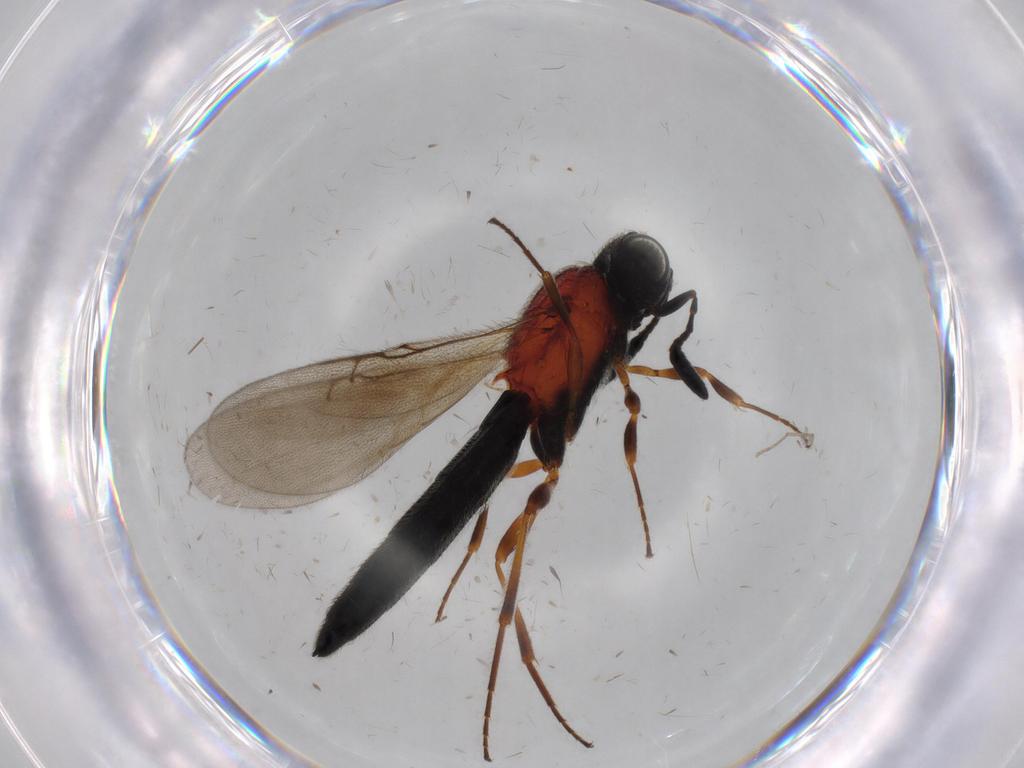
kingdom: Animalia
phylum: Arthropoda
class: Insecta
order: Hymenoptera
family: Scelionidae
